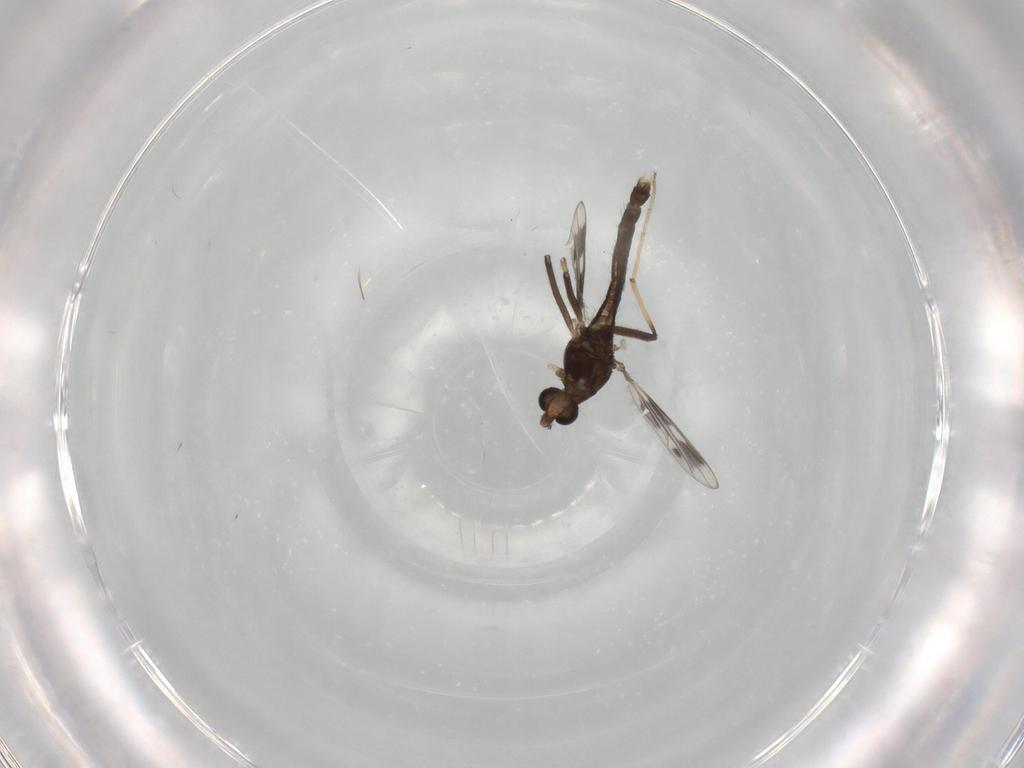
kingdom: Animalia
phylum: Arthropoda
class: Insecta
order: Diptera
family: Chironomidae
